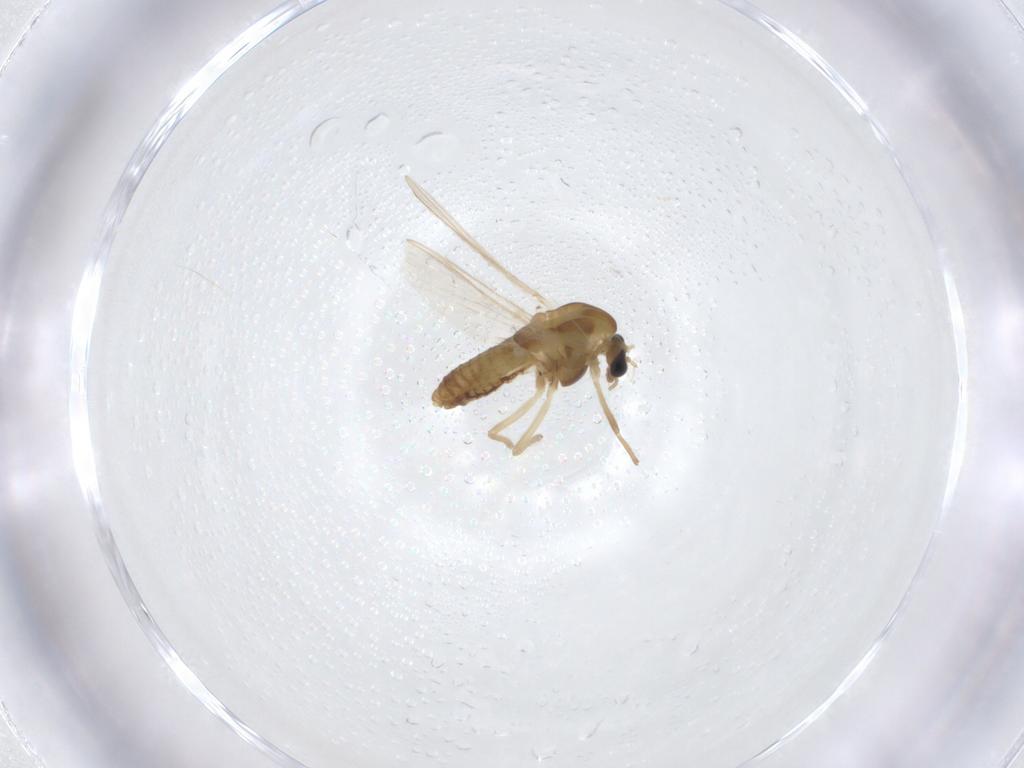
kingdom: Animalia
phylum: Arthropoda
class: Insecta
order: Diptera
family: Chironomidae
